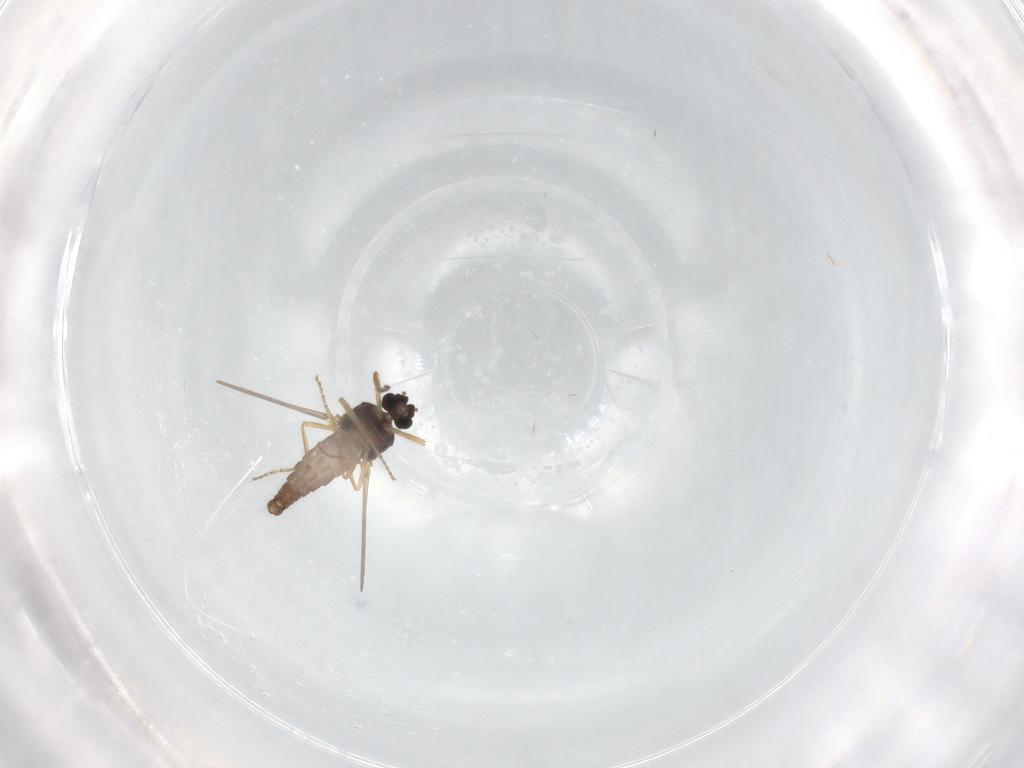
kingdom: Animalia
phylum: Arthropoda
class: Insecta
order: Diptera
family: Ceratopogonidae
